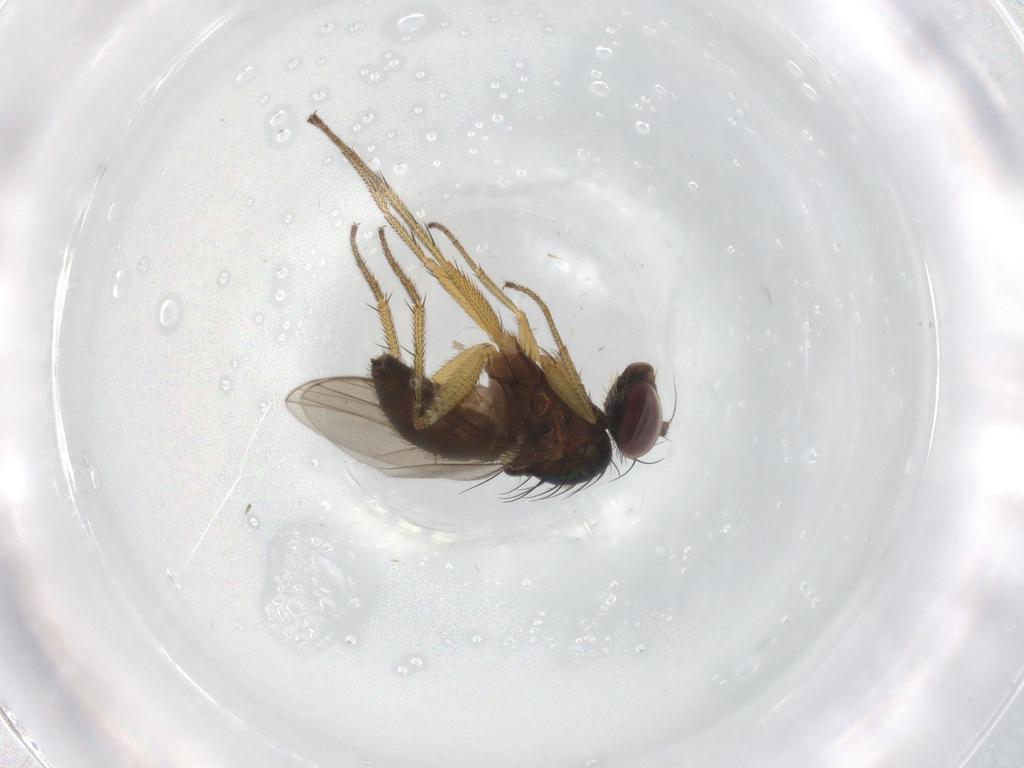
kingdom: Animalia
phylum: Arthropoda
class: Insecta
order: Diptera
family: Dolichopodidae
